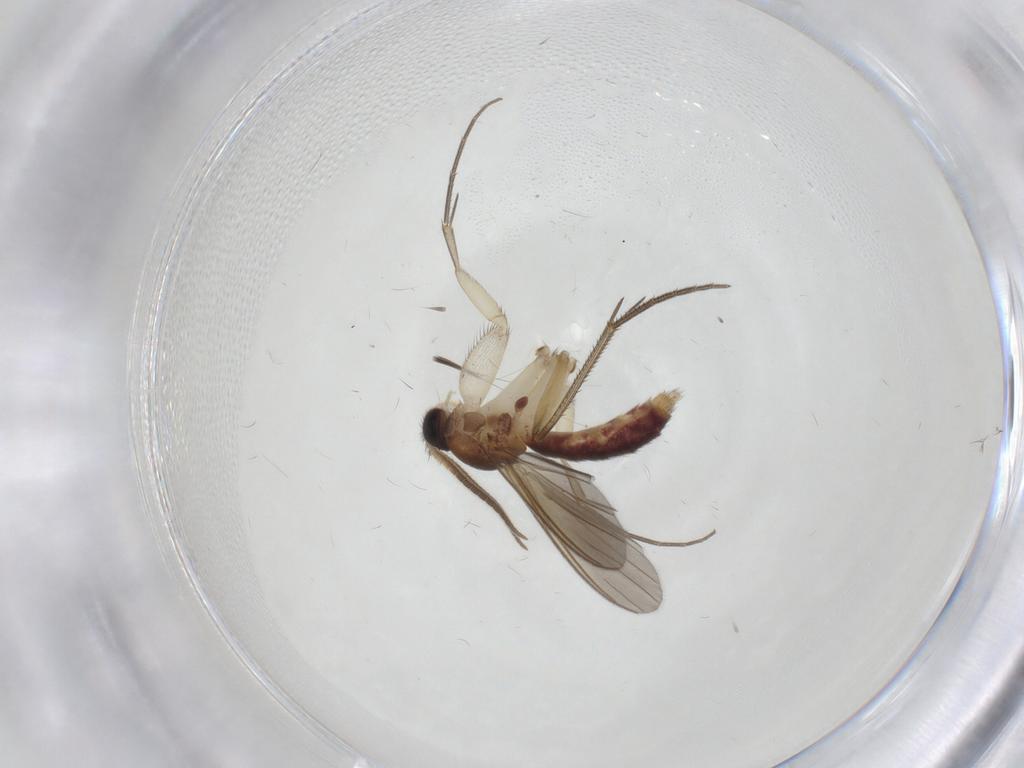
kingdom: Animalia
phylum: Arthropoda
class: Insecta
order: Diptera
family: Mycetophilidae
